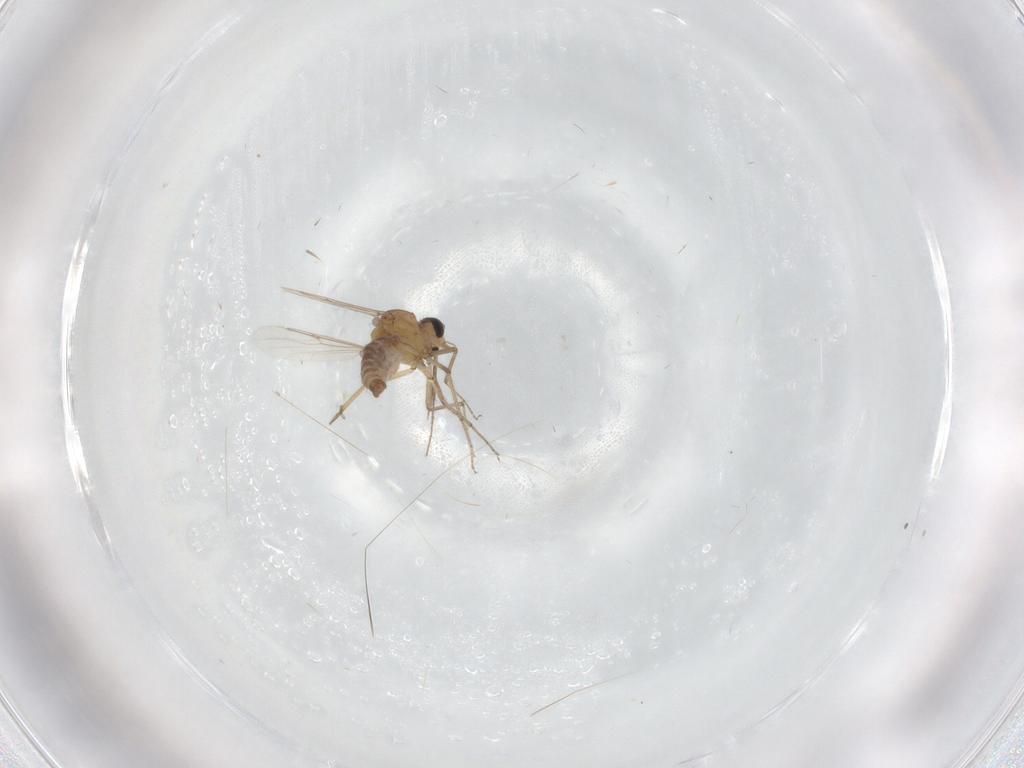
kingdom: Animalia
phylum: Arthropoda
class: Insecta
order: Diptera
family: Ceratopogonidae
